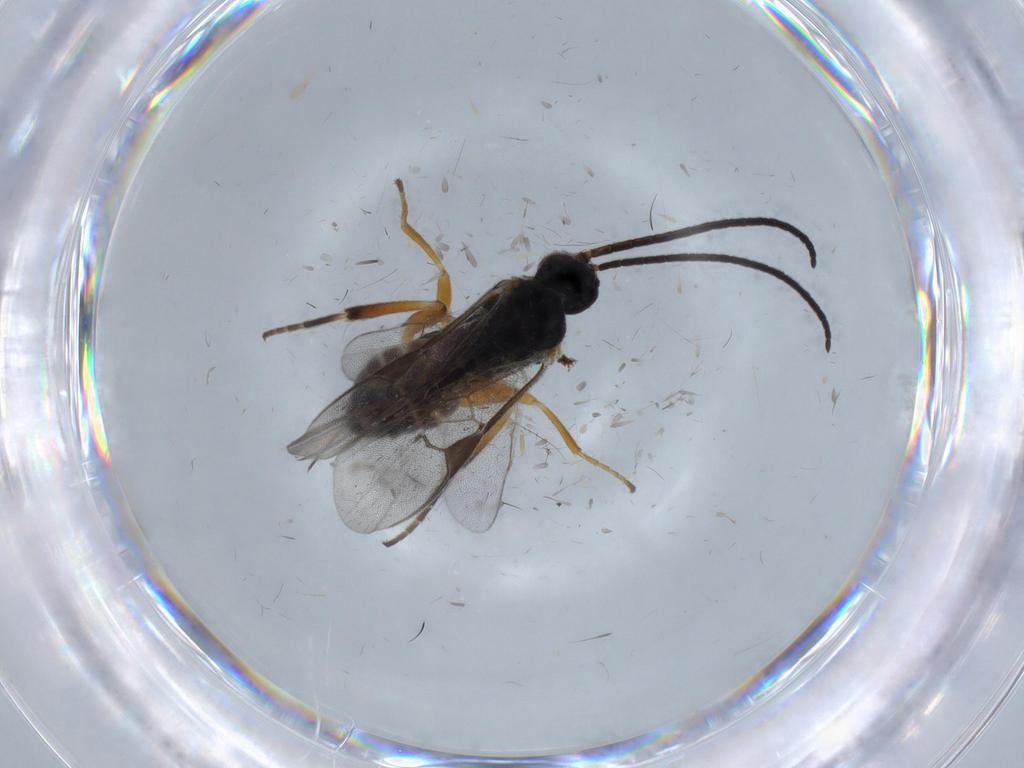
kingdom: Animalia
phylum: Arthropoda
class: Insecta
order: Hymenoptera
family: Braconidae
